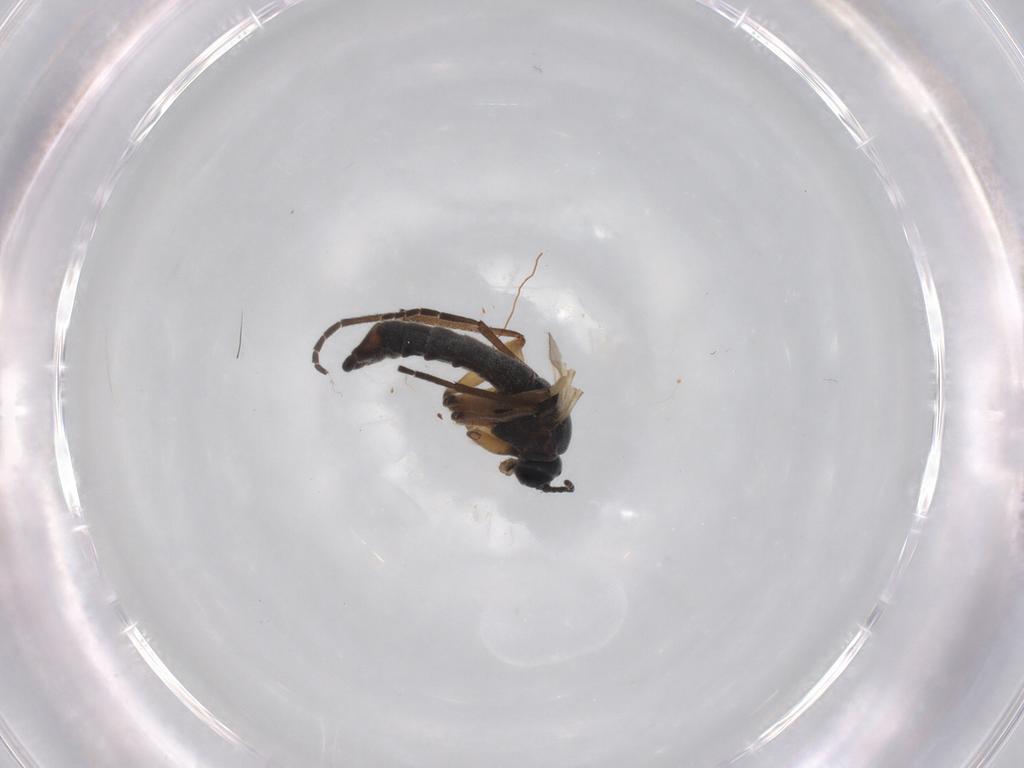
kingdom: Animalia
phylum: Arthropoda
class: Insecta
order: Diptera
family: Sciaridae
